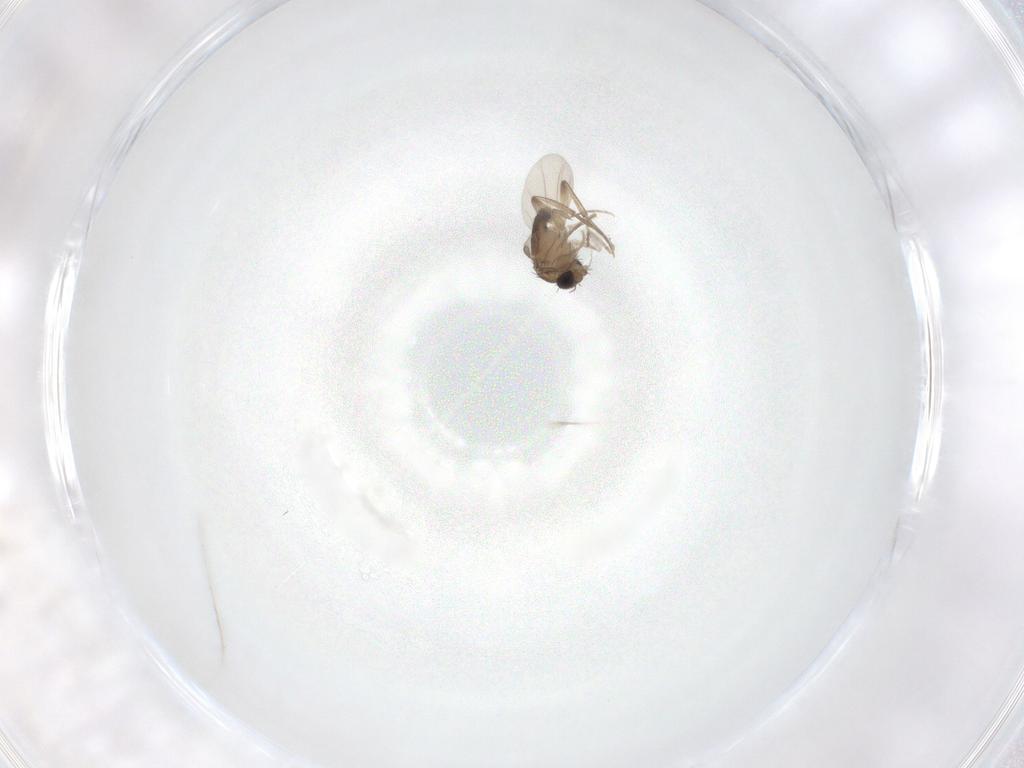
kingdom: Animalia
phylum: Arthropoda
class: Insecta
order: Diptera
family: Phoridae
